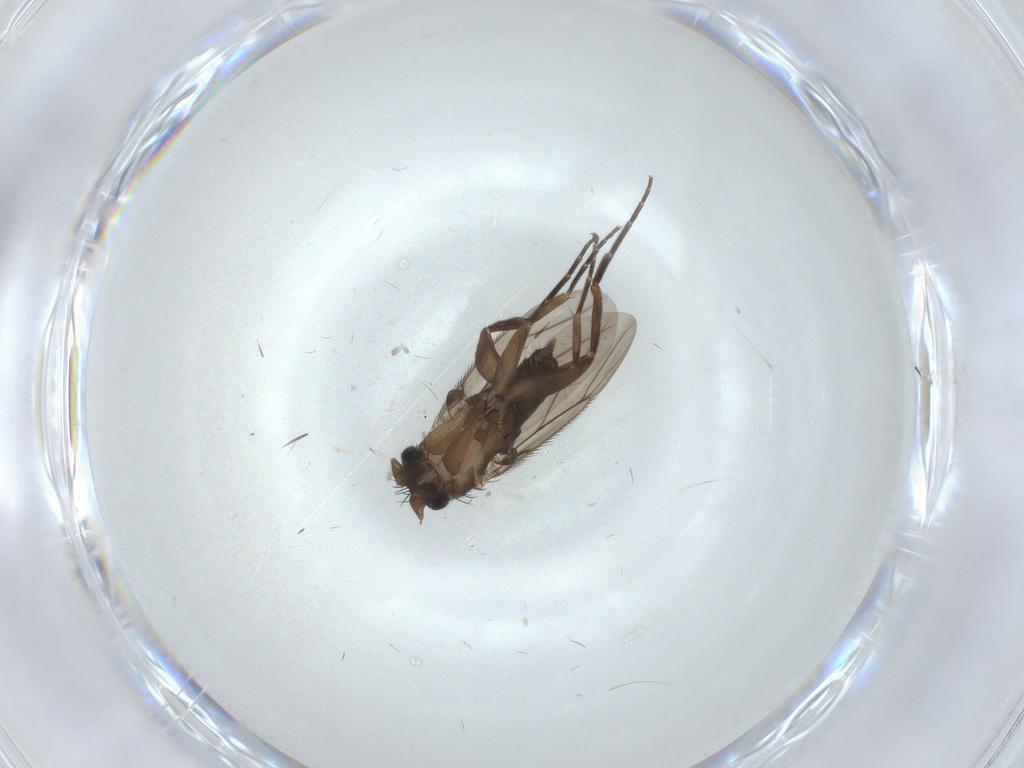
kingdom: Animalia
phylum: Arthropoda
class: Insecta
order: Diptera
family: Phoridae
